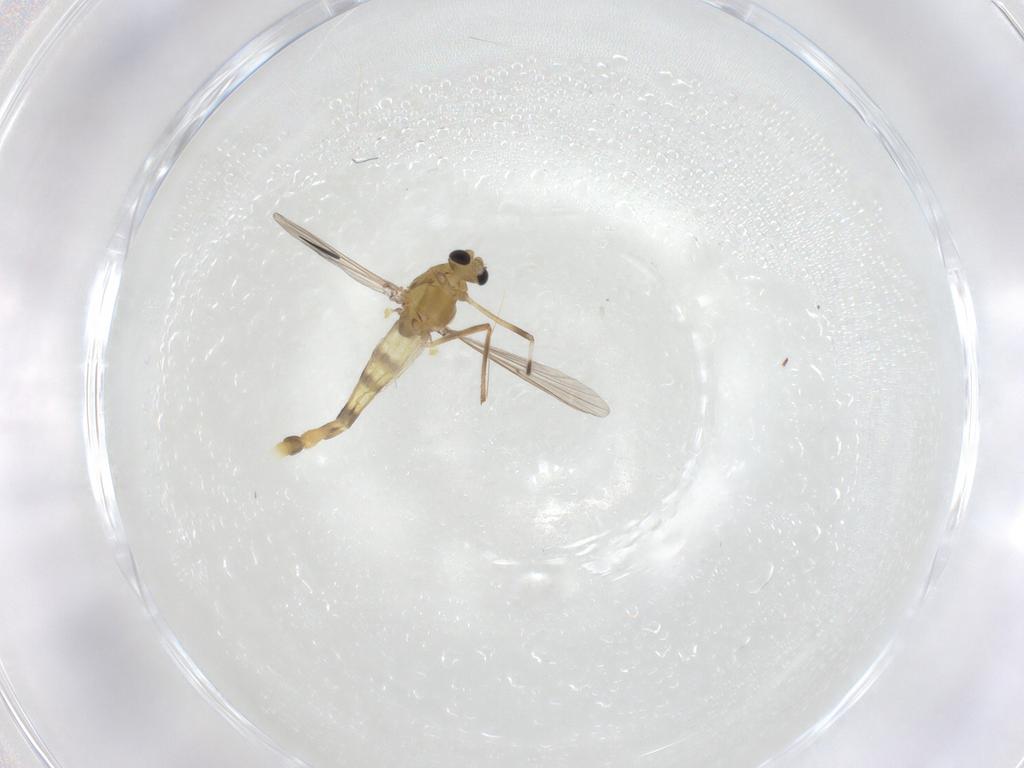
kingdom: Animalia
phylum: Arthropoda
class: Insecta
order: Diptera
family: Chironomidae
